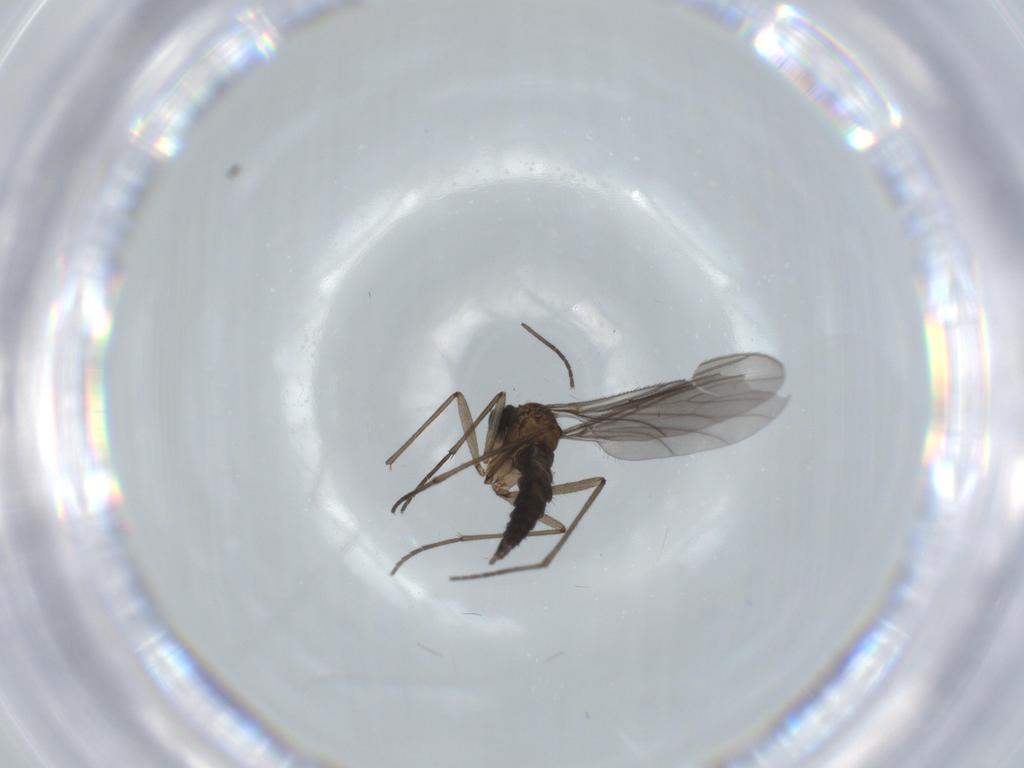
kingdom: Animalia
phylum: Arthropoda
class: Insecta
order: Diptera
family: Sciaridae
